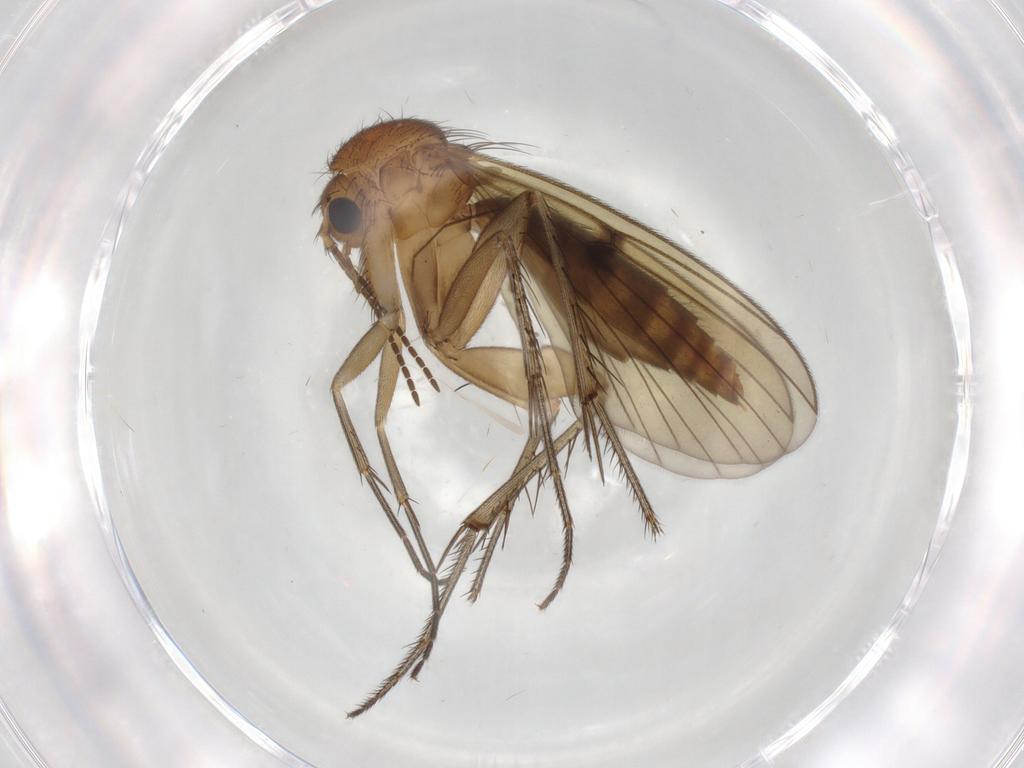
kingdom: Animalia
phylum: Arthropoda
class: Insecta
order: Diptera
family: Mycetophilidae
